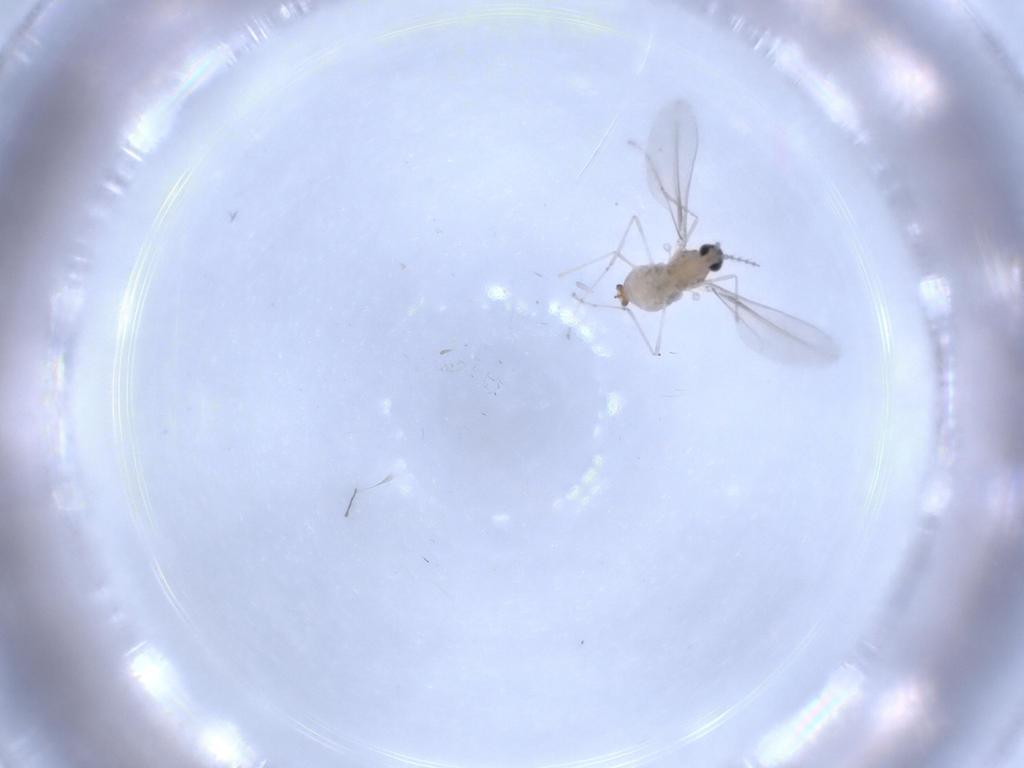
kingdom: Animalia
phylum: Arthropoda
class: Insecta
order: Diptera
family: Cecidomyiidae
